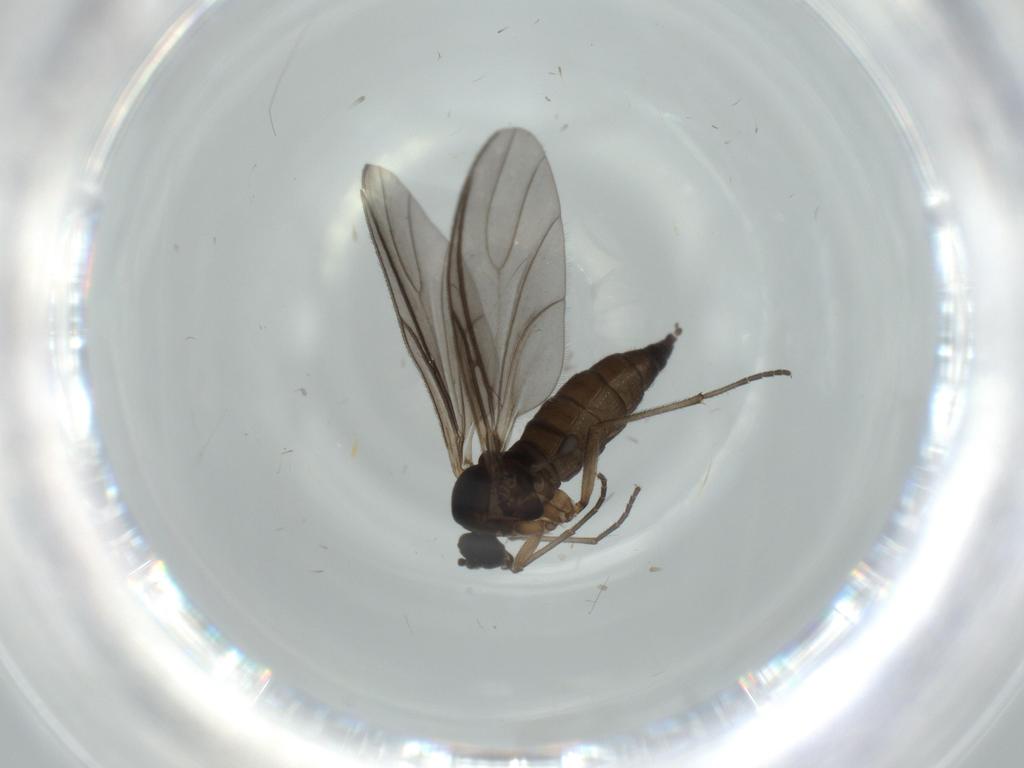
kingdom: Animalia
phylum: Arthropoda
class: Insecta
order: Diptera
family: Sciaridae
